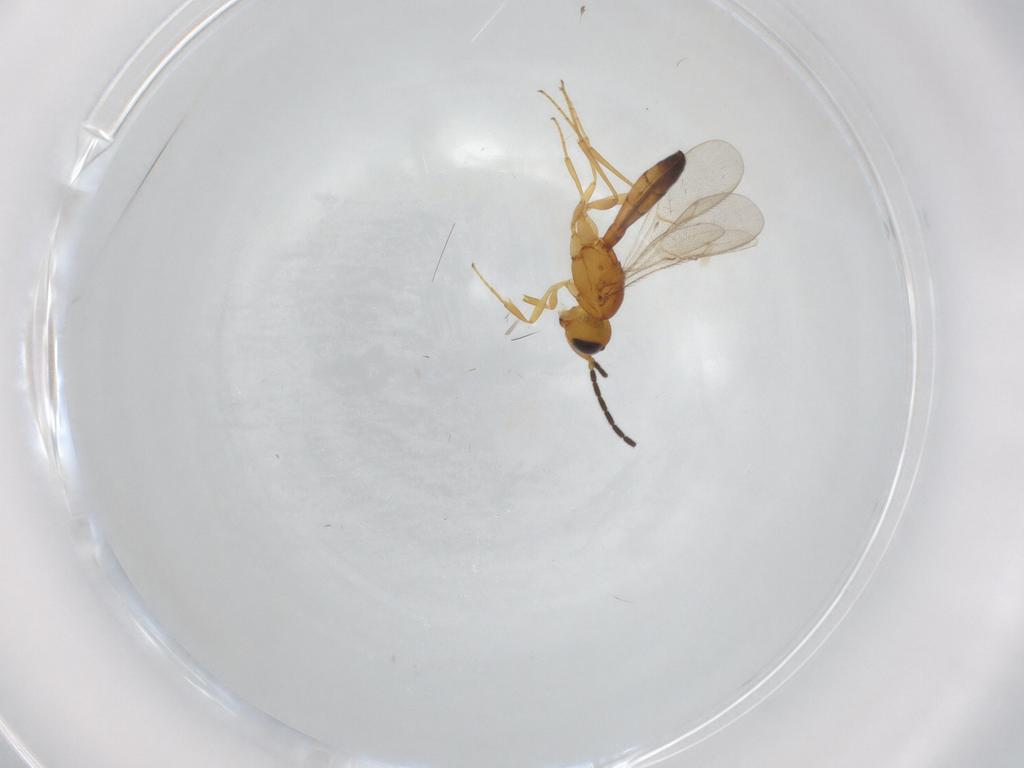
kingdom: Animalia
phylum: Arthropoda
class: Insecta
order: Hymenoptera
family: Scelionidae
